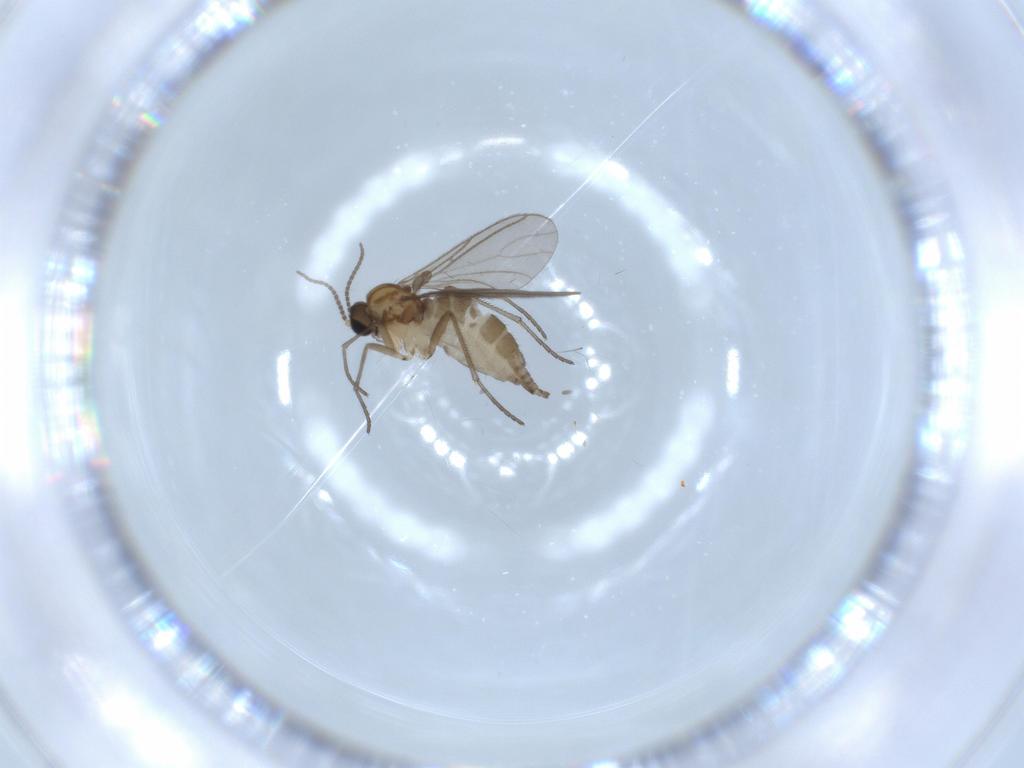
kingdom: Animalia
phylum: Arthropoda
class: Insecta
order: Diptera
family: Sciaridae
